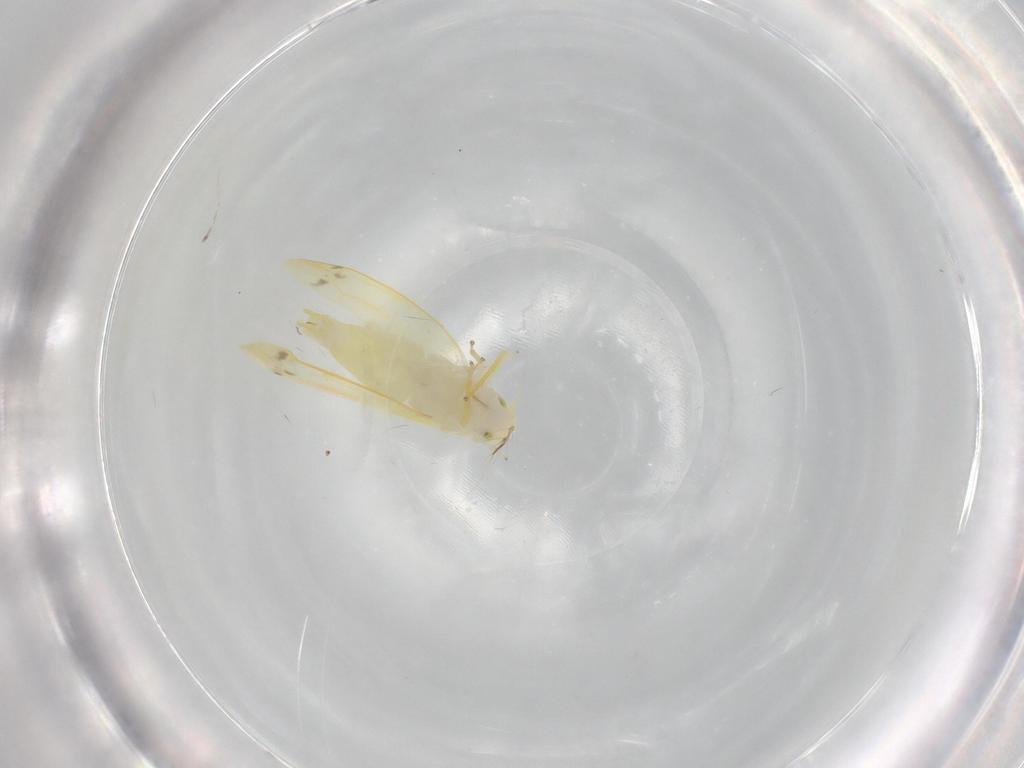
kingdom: Animalia
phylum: Arthropoda
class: Insecta
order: Hemiptera
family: Cicadellidae
